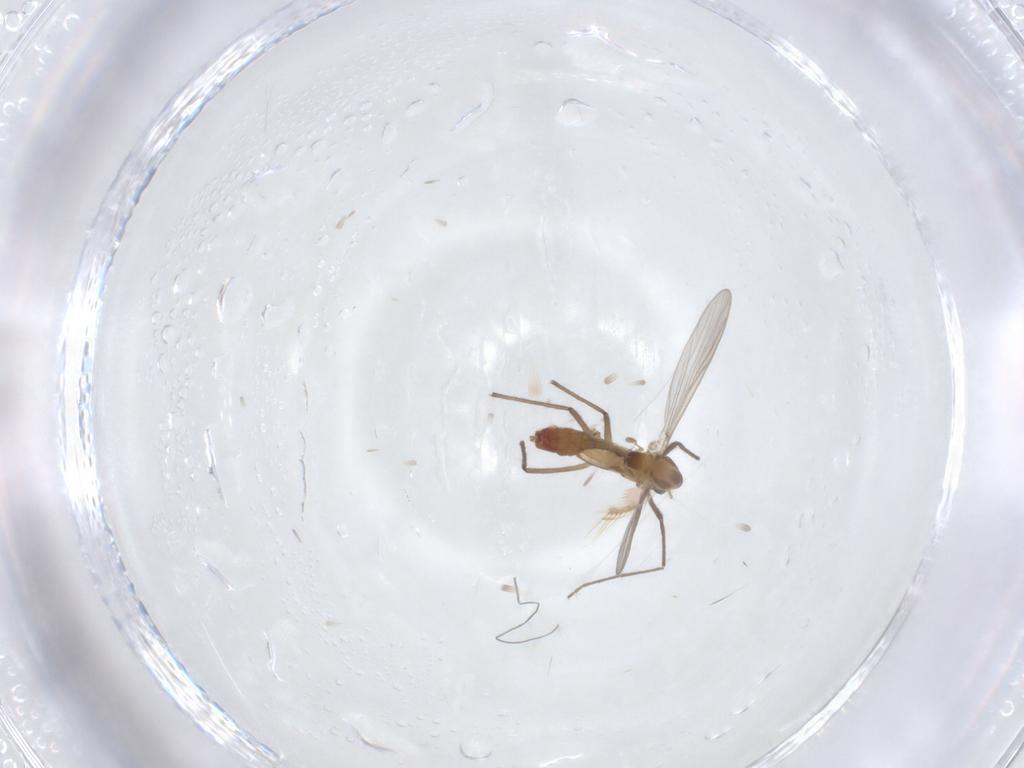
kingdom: Animalia
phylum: Arthropoda
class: Insecta
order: Diptera
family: Chironomidae
